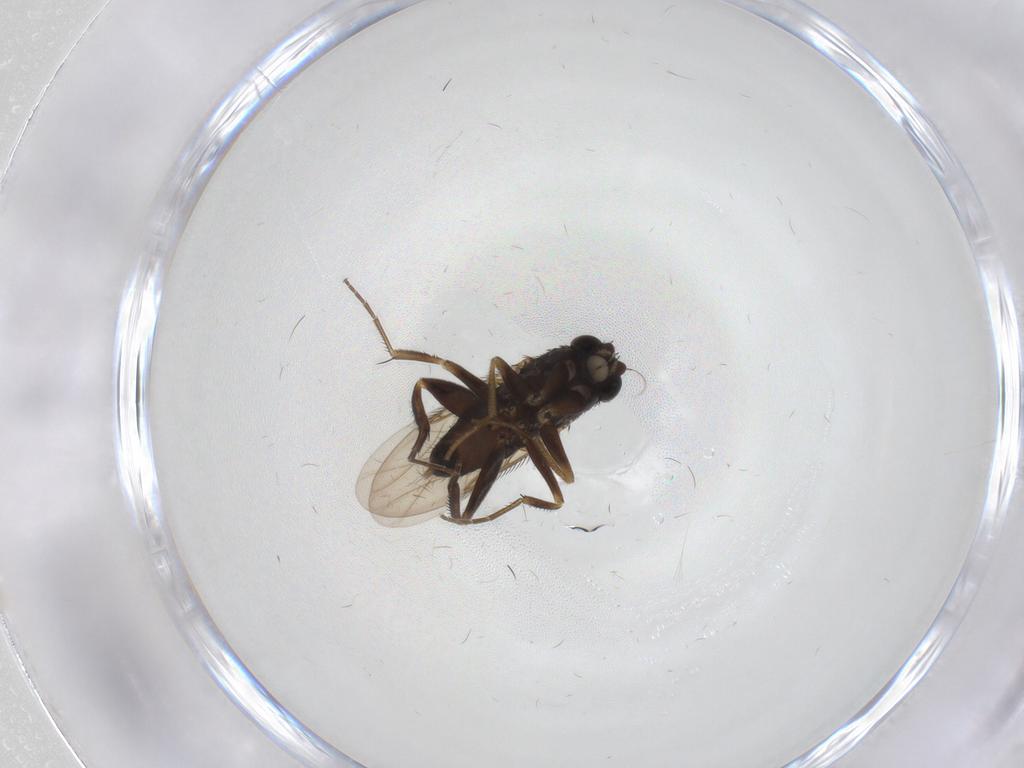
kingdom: Animalia
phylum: Arthropoda
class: Insecta
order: Diptera
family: Phoridae
